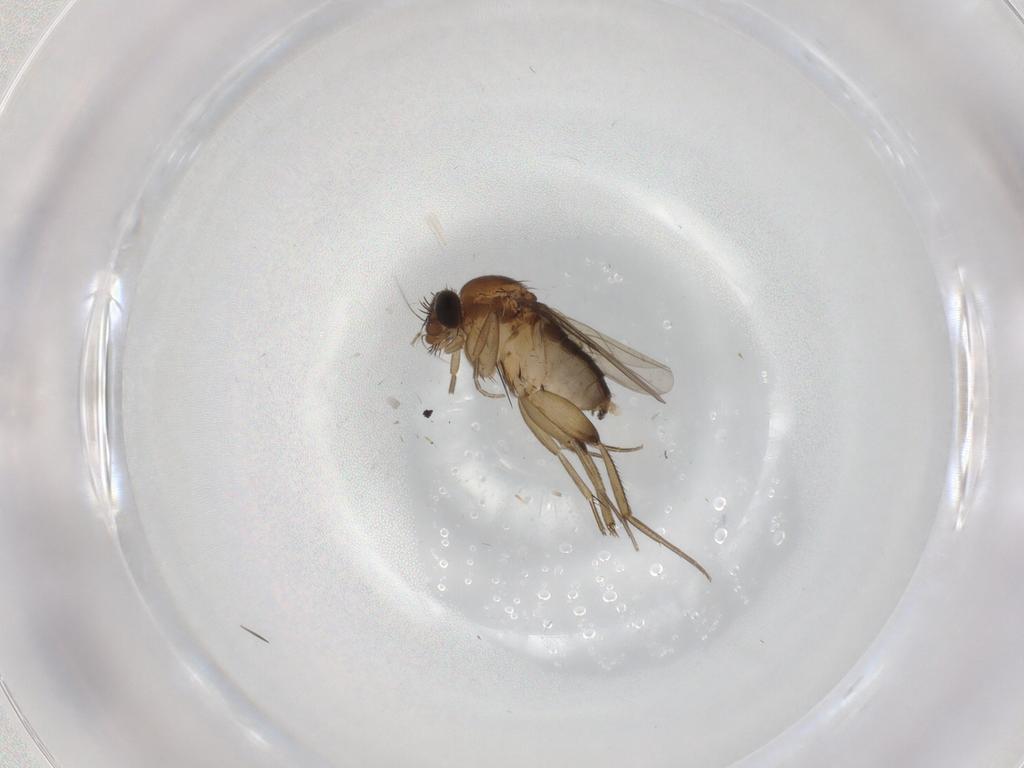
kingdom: Animalia
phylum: Arthropoda
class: Insecta
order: Diptera
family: Phoridae
